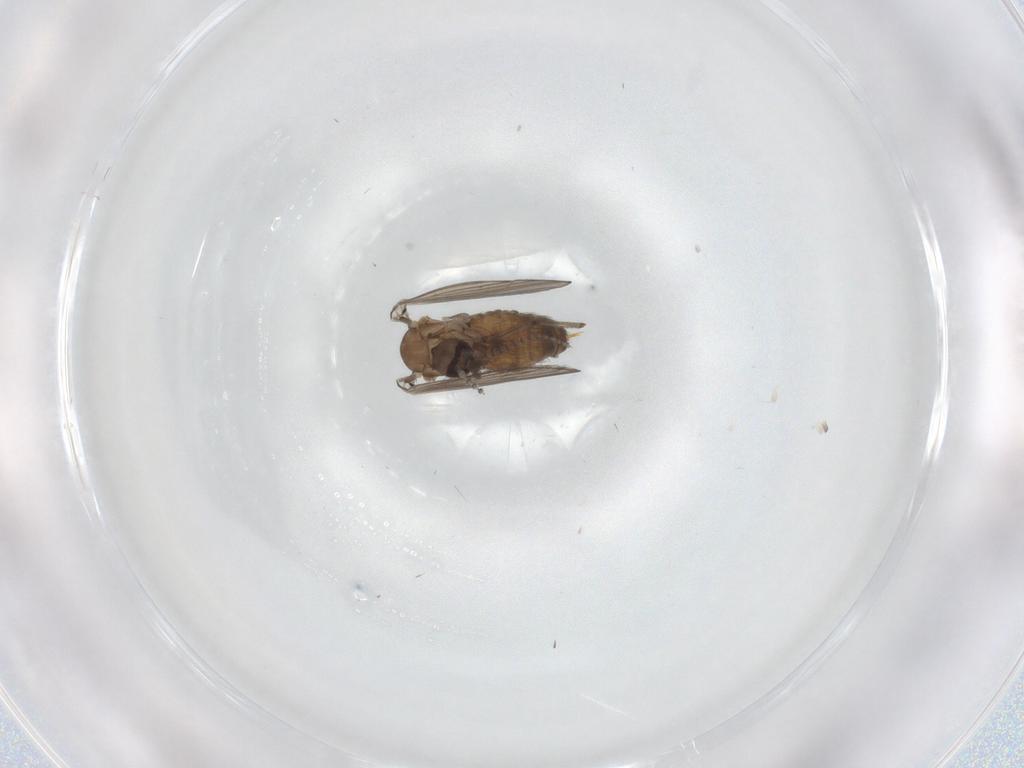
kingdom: Animalia
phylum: Arthropoda
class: Insecta
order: Diptera
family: Psychodidae
